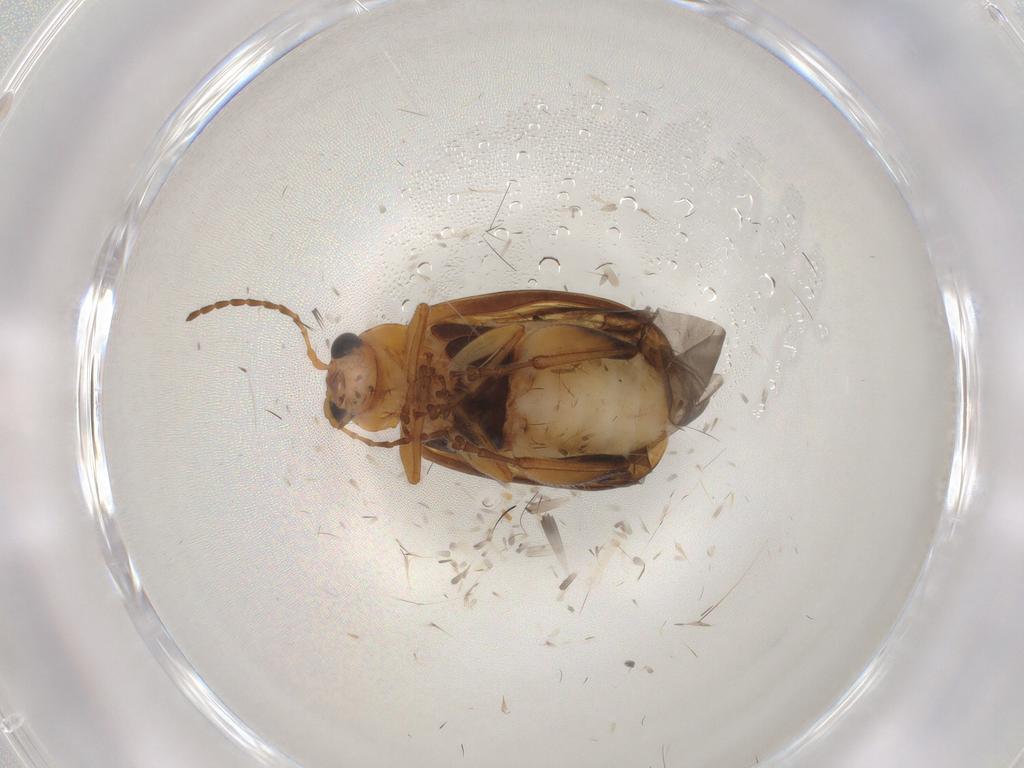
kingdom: Animalia
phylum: Arthropoda
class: Insecta
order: Coleoptera
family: Chrysomelidae
